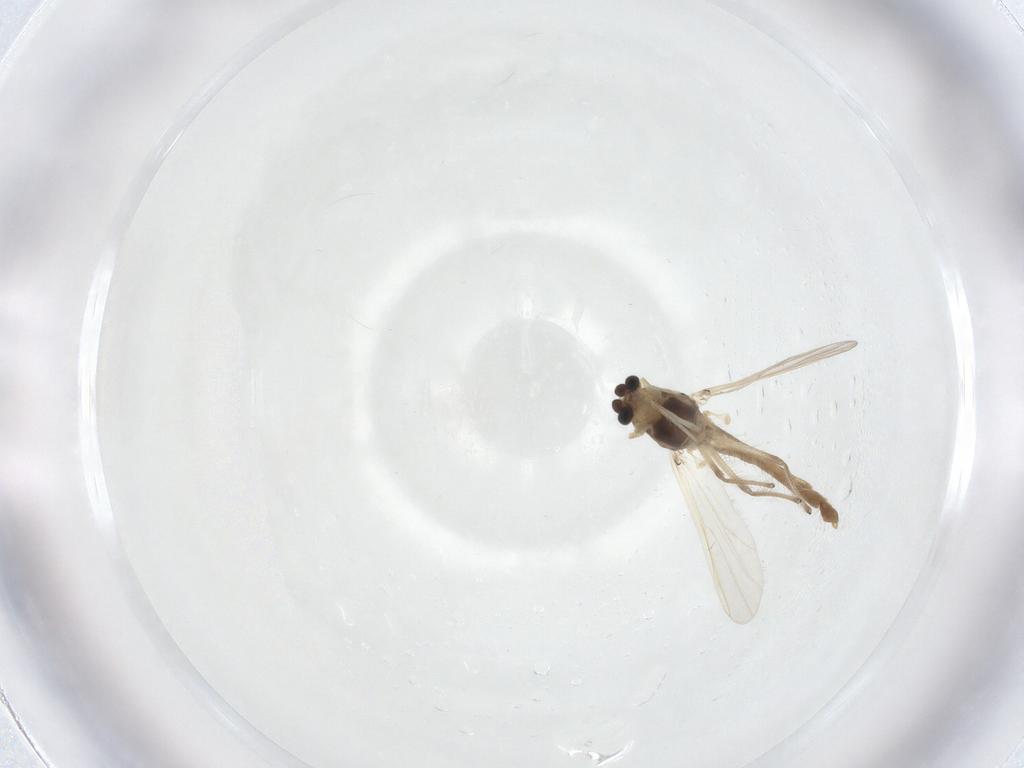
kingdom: Animalia
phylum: Arthropoda
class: Insecta
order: Diptera
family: Chironomidae
